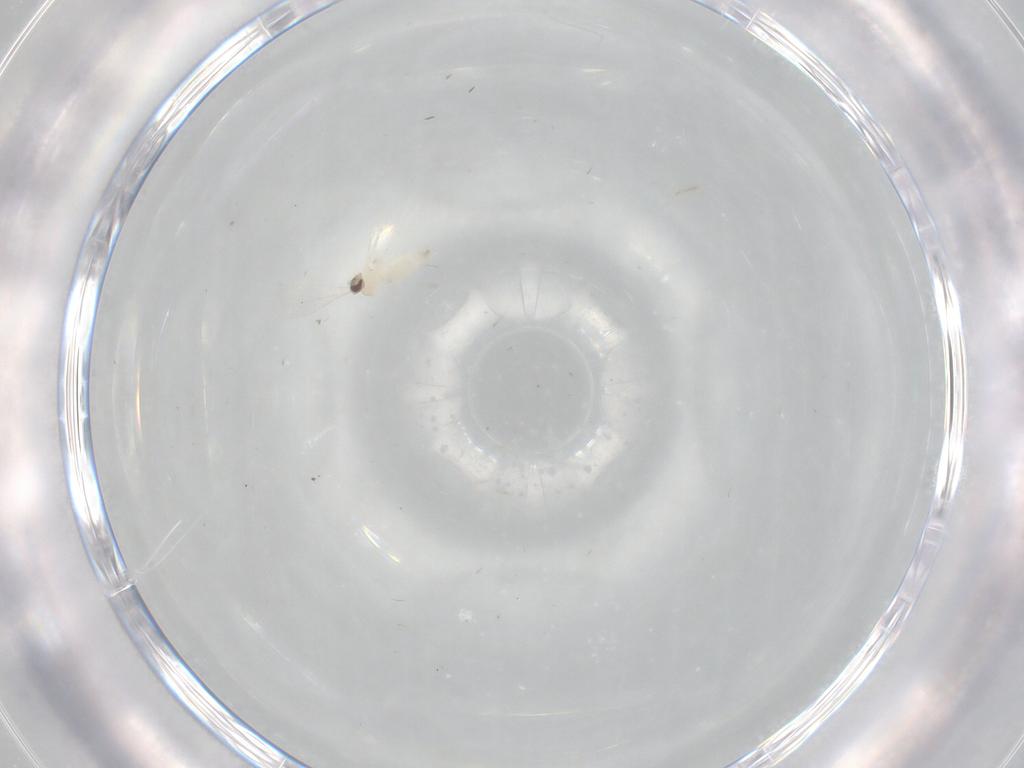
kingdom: Animalia
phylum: Arthropoda
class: Insecta
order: Diptera
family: Cecidomyiidae
